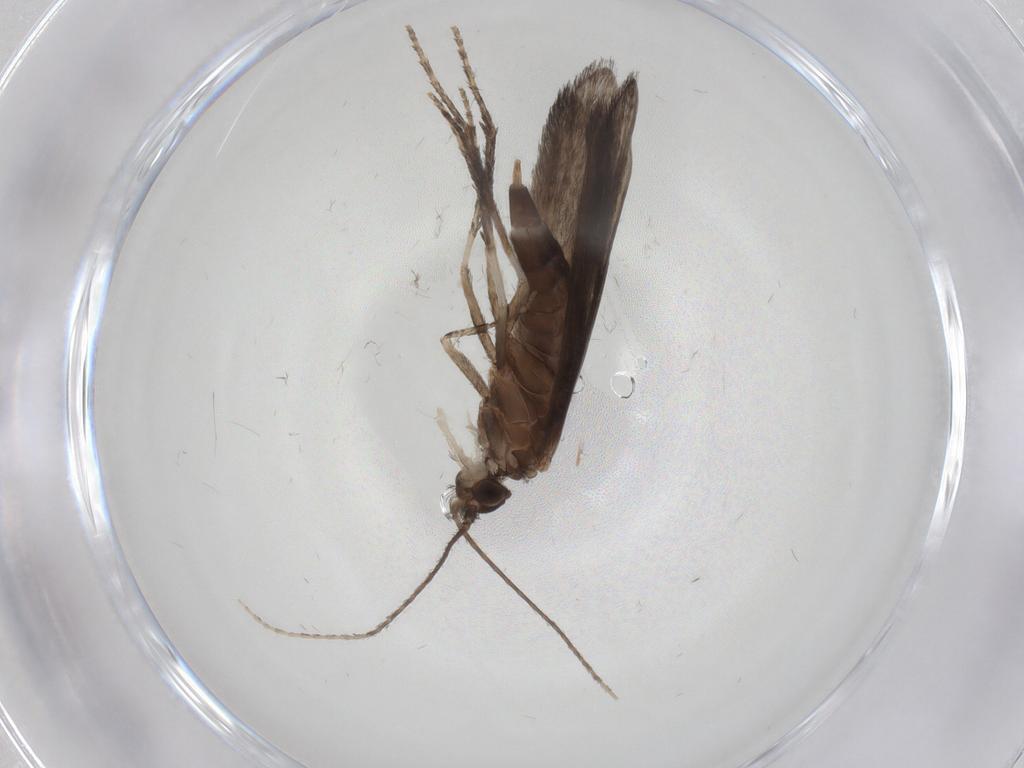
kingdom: Animalia
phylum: Arthropoda
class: Insecta
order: Trichoptera
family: Xiphocentronidae
